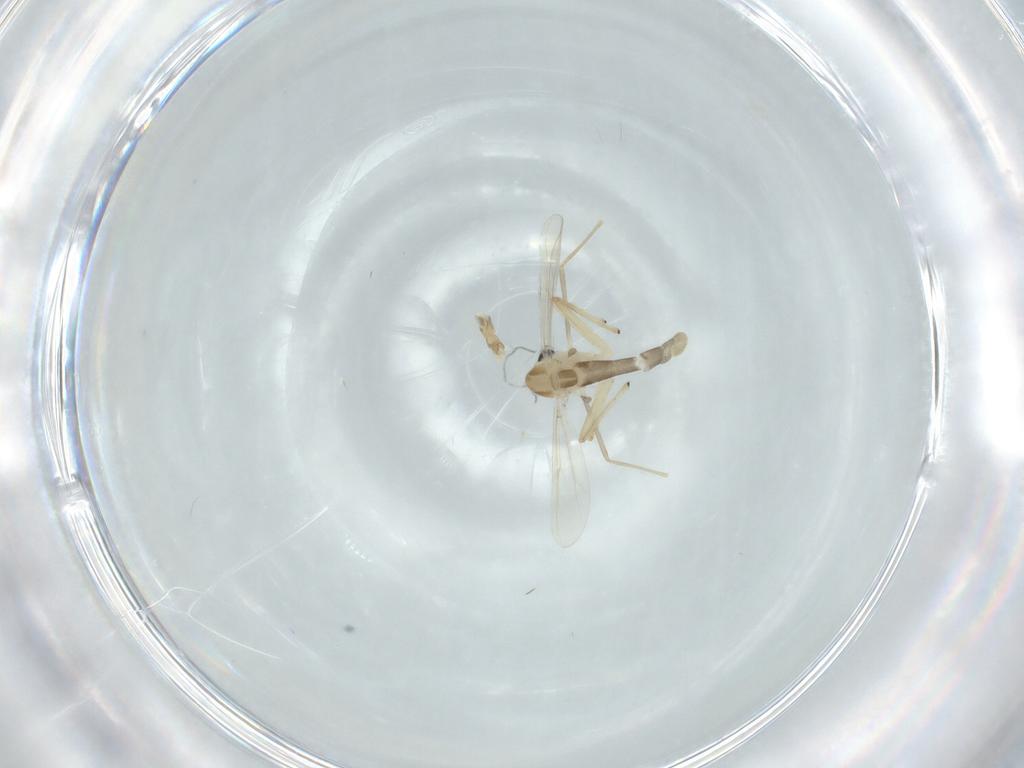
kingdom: Animalia
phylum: Arthropoda
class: Insecta
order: Diptera
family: Chironomidae
